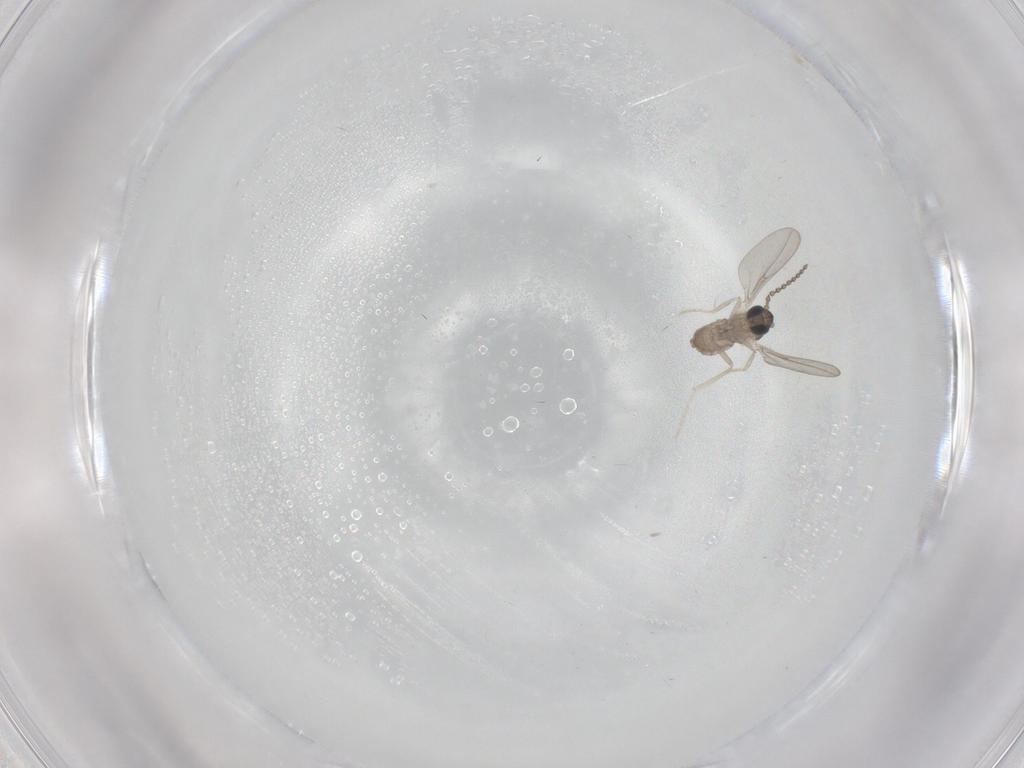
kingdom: Animalia
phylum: Arthropoda
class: Insecta
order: Diptera
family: Cecidomyiidae
